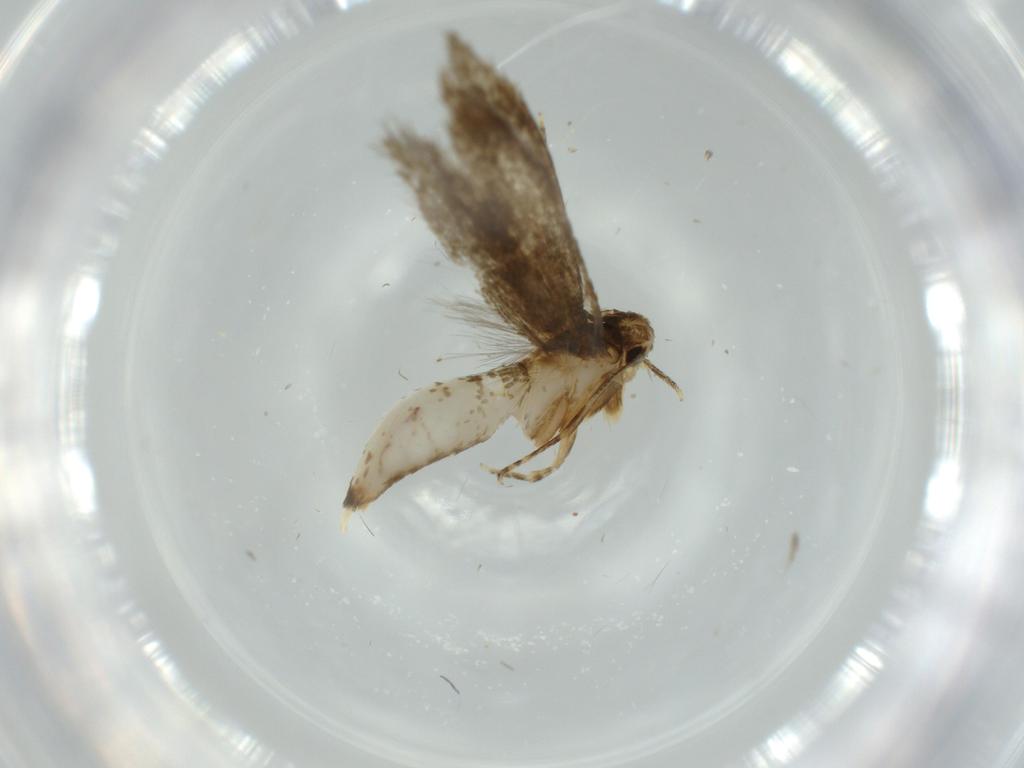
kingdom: Animalia
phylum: Arthropoda
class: Insecta
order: Lepidoptera
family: Tineidae
